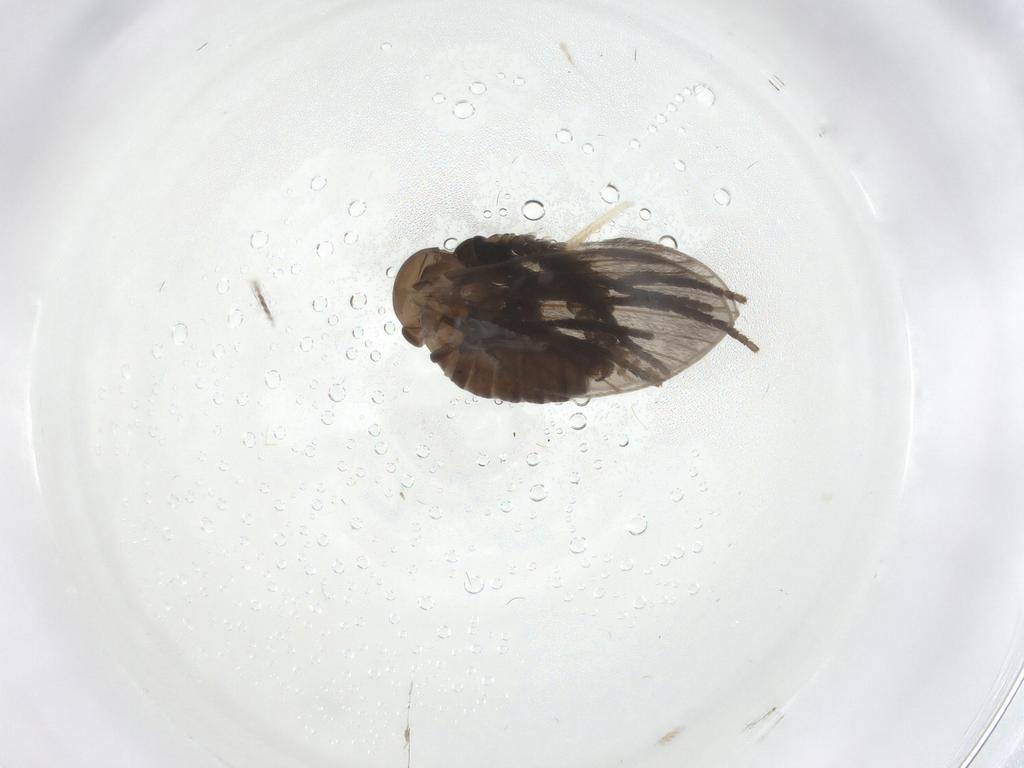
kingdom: Animalia
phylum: Arthropoda
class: Insecta
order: Diptera
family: Psychodidae
